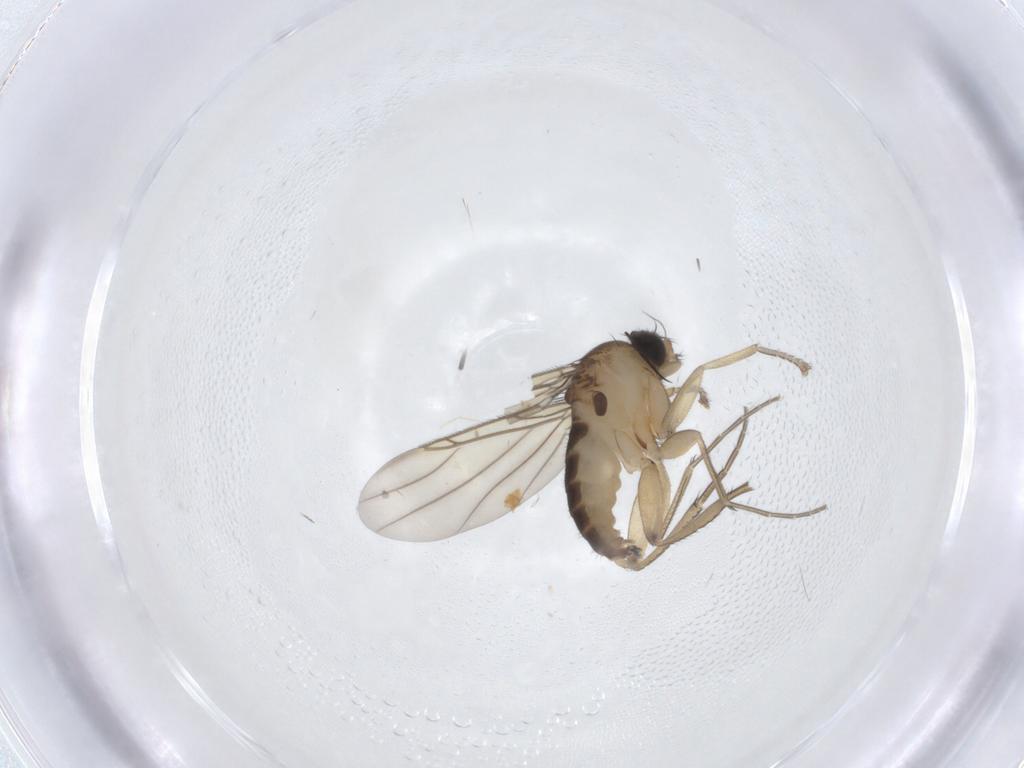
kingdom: Animalia
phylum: Arthropoda
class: Insecta
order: Diptera
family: Phoridae
